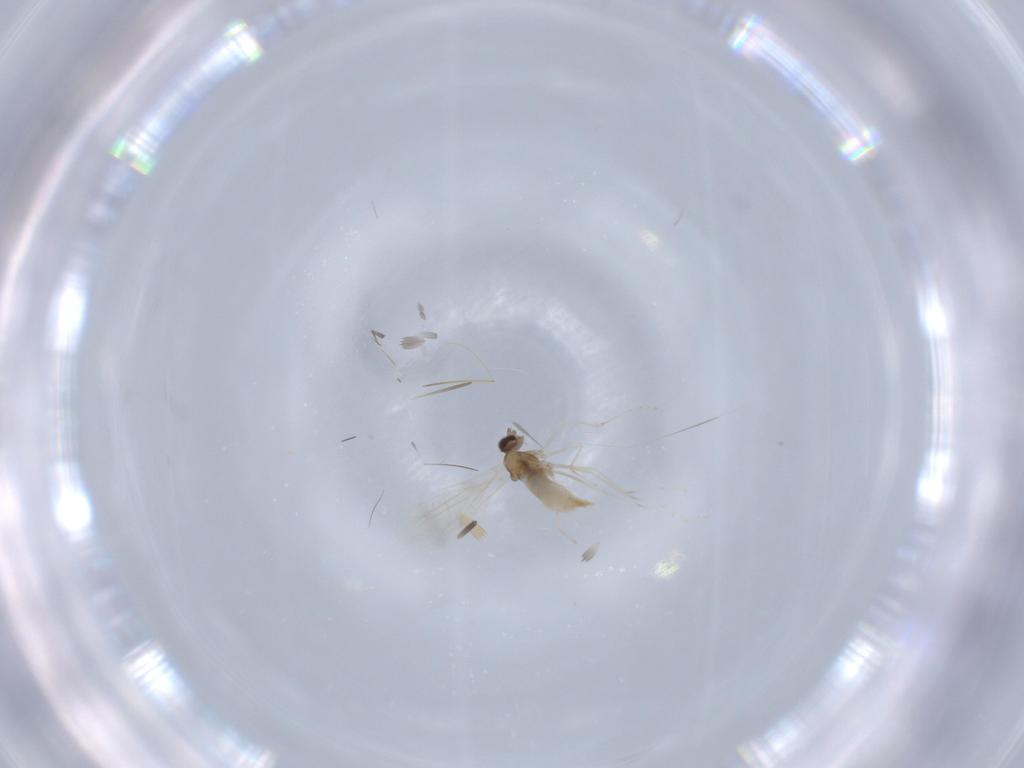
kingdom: Animalia
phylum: Arthropoda
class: Insecta
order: Diptera
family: Cecidomyiidae
